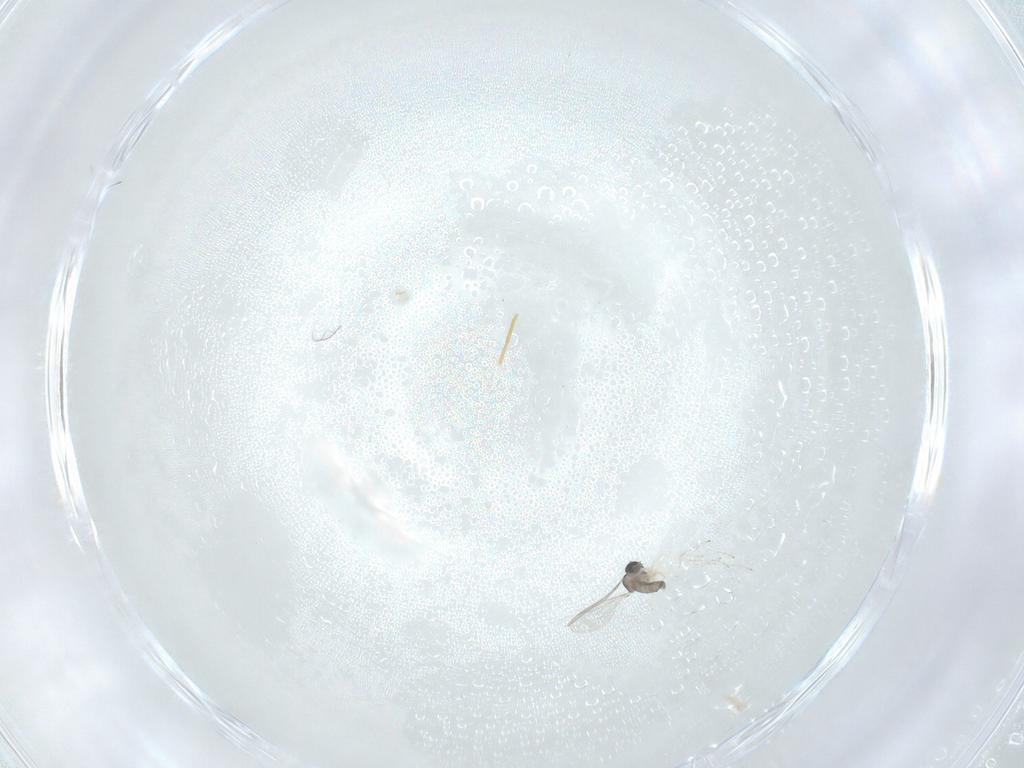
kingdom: Animalia
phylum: Arthropoda
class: Insecta
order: Diptera
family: Cecidomyiidae
